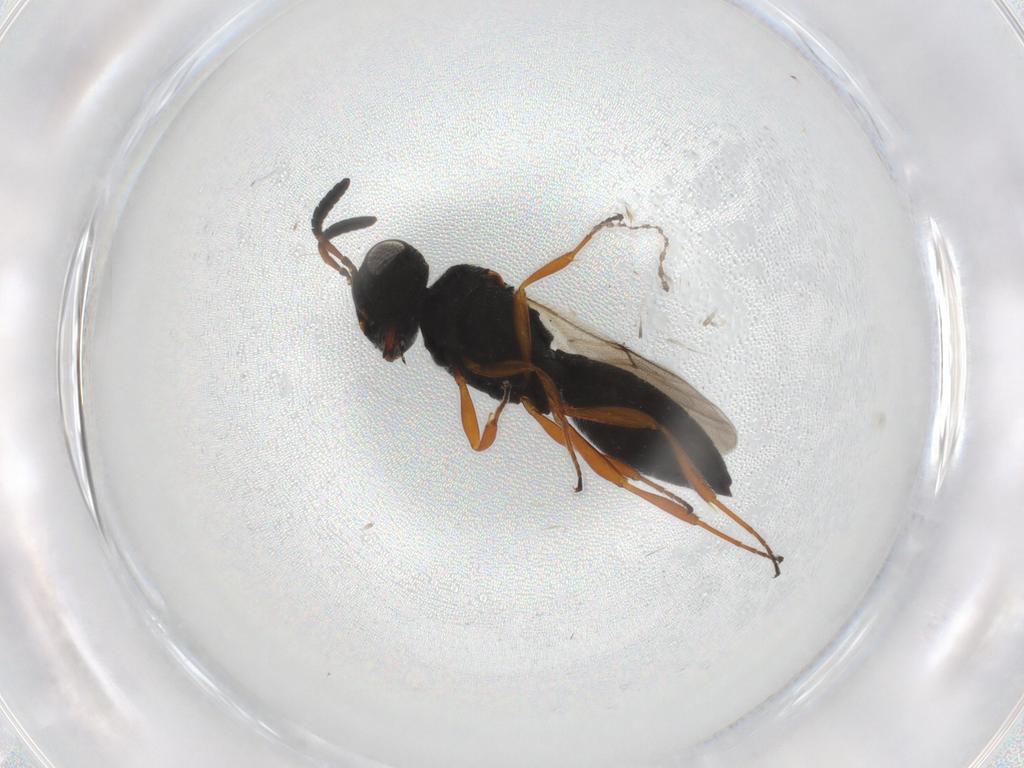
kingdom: Animalia
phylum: Arthropoda
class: Insecta
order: Hymenoptera
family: Scelionidae
